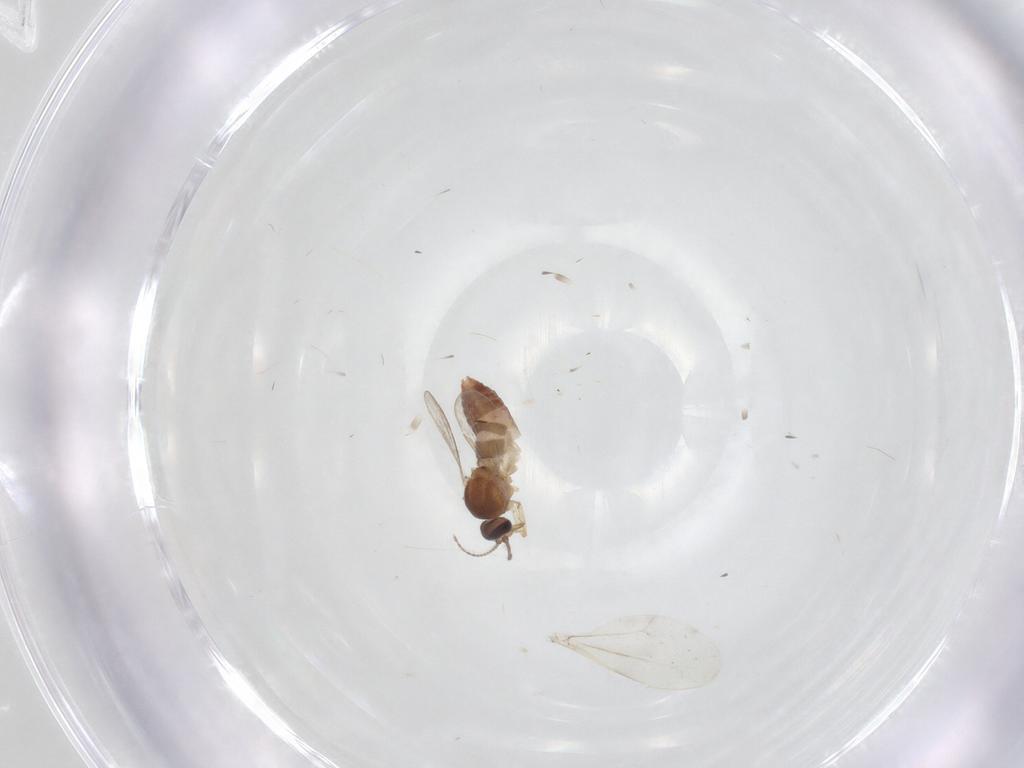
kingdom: Animalia
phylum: Arthropoda
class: Insecta
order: Diptera
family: Ceratopogonidae
